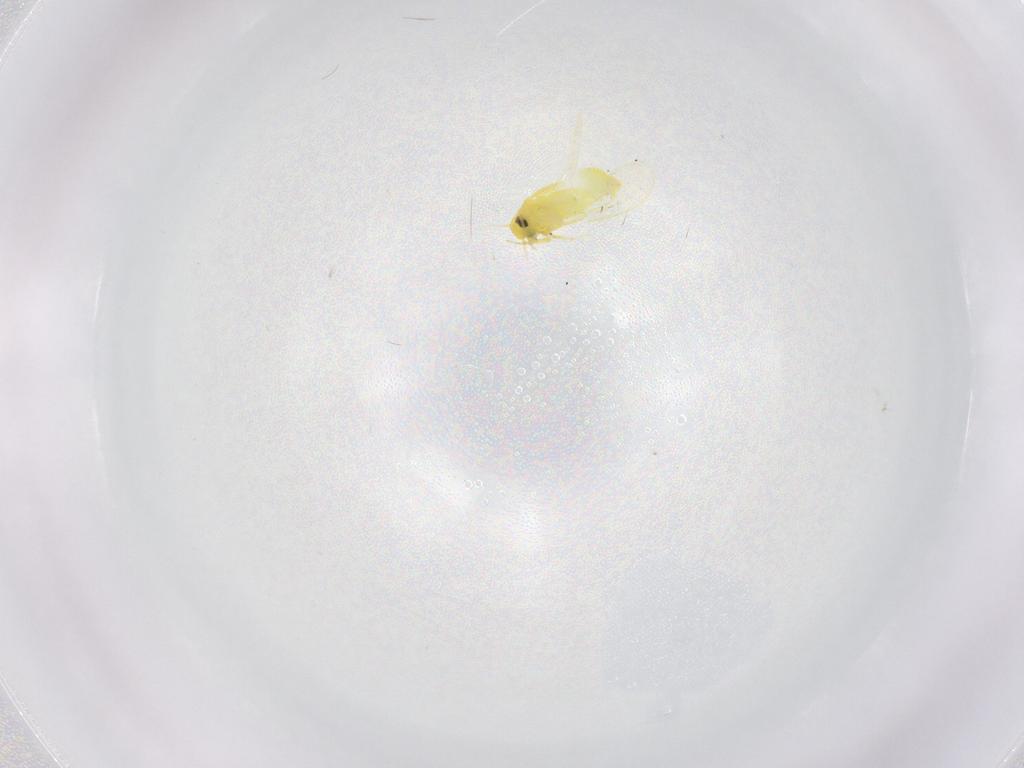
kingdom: Animalia
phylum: Arthropoda
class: Insecta
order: Hemiptera
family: Aleyrodidae
